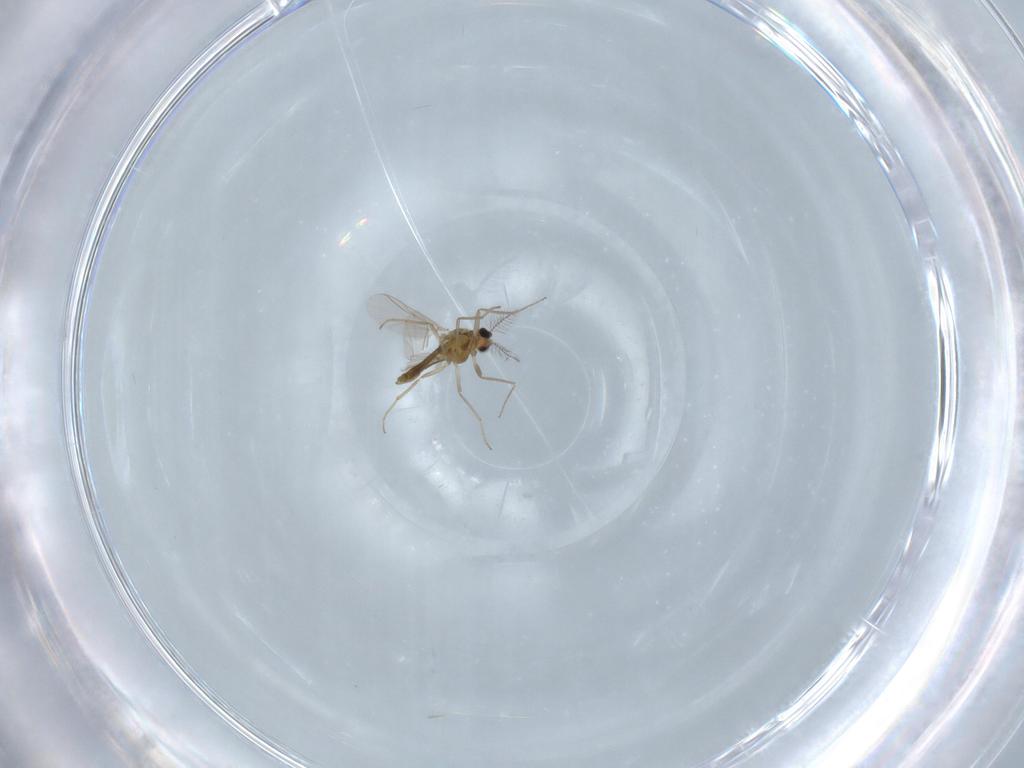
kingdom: Animalia
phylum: Arthropoda
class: Insecta
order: Diptera
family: Chironomidae
